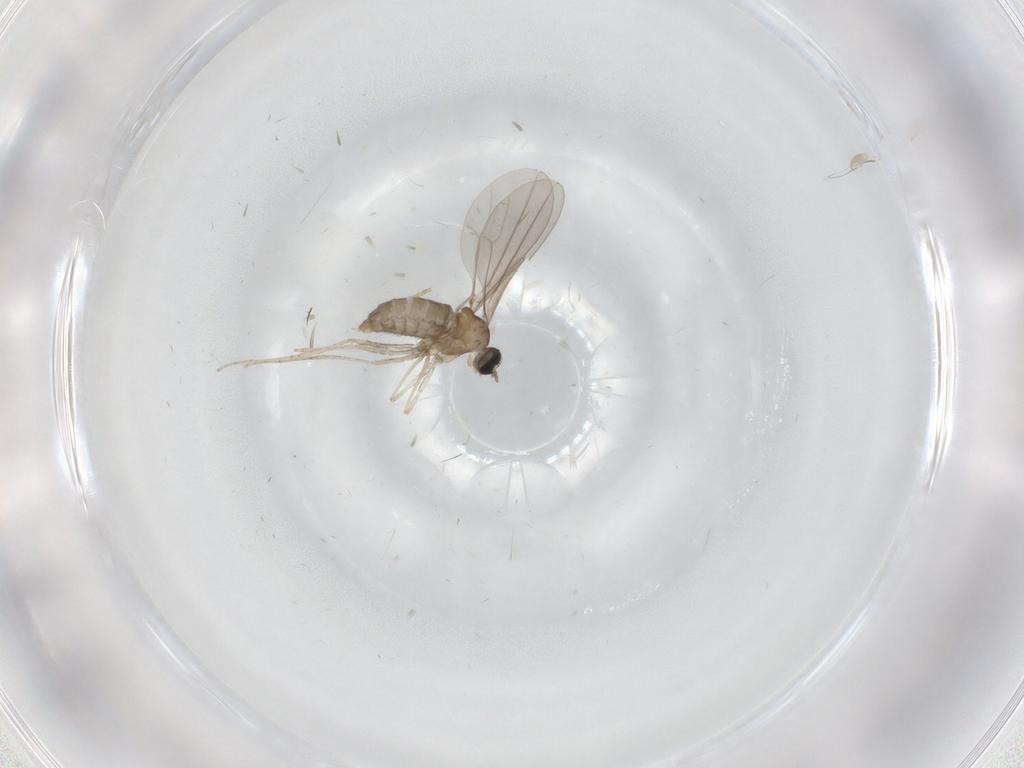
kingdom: Animalia
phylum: Arthropoda
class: Insecta
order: Diptera
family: Cecidomyiidae
